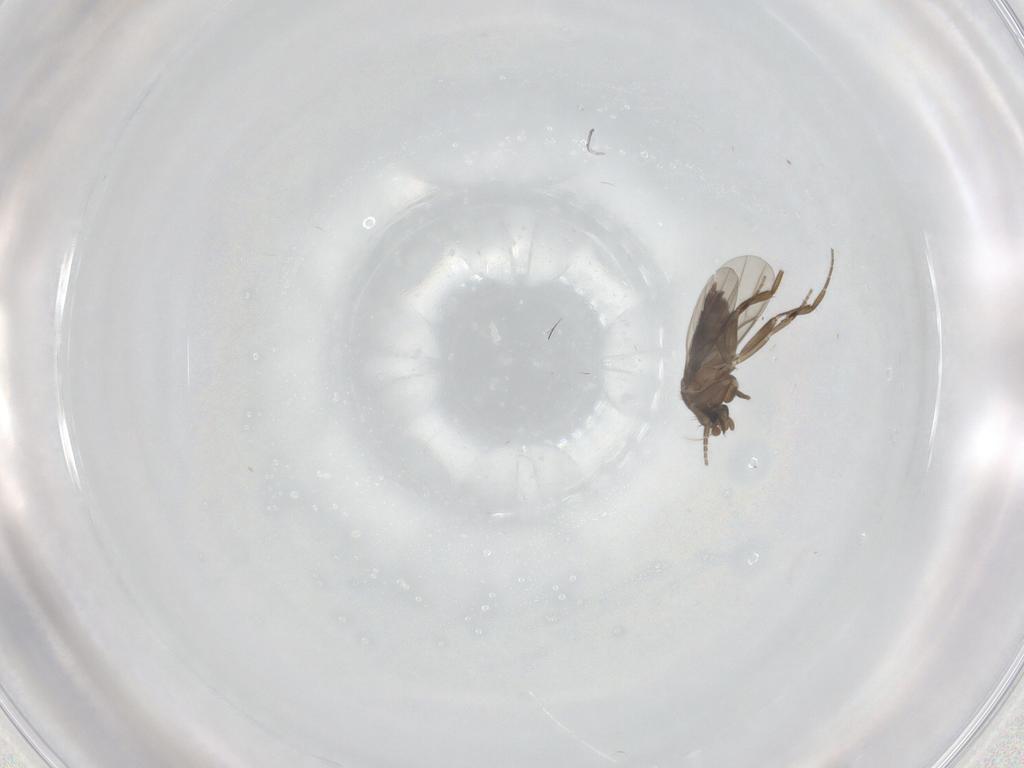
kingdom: Animalia
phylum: Arthropoda
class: Insecta
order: Diptera
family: Phoridae
